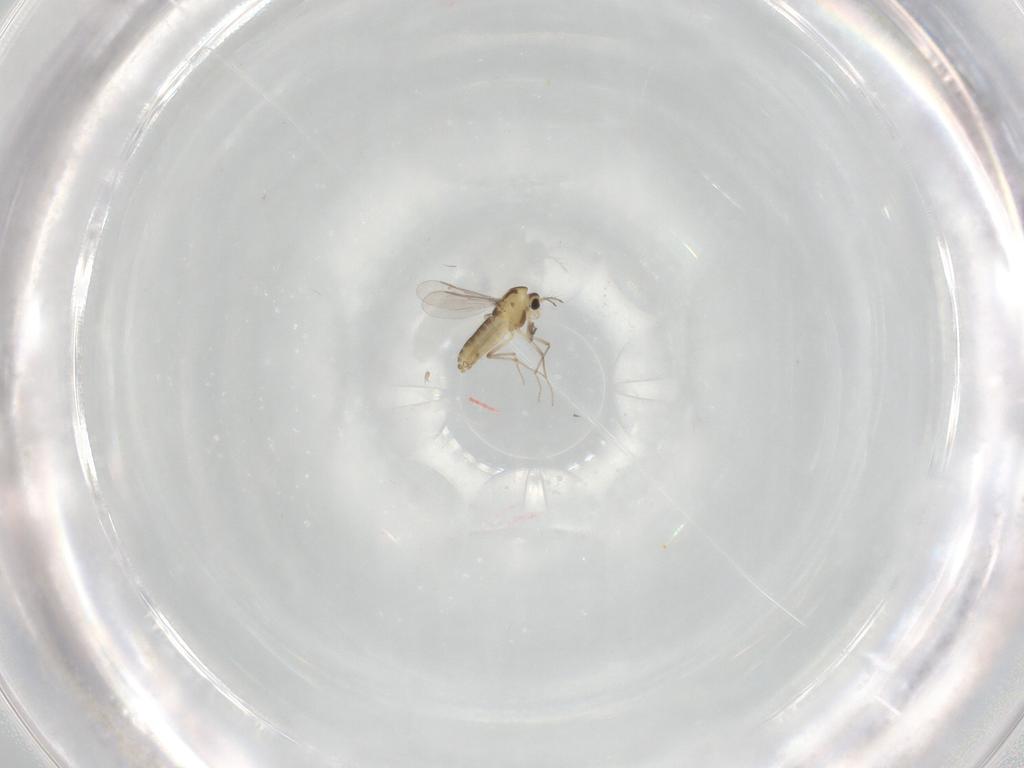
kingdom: Animalia
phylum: Arthropoda
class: Insecta
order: Diptera
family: Chironomidae
